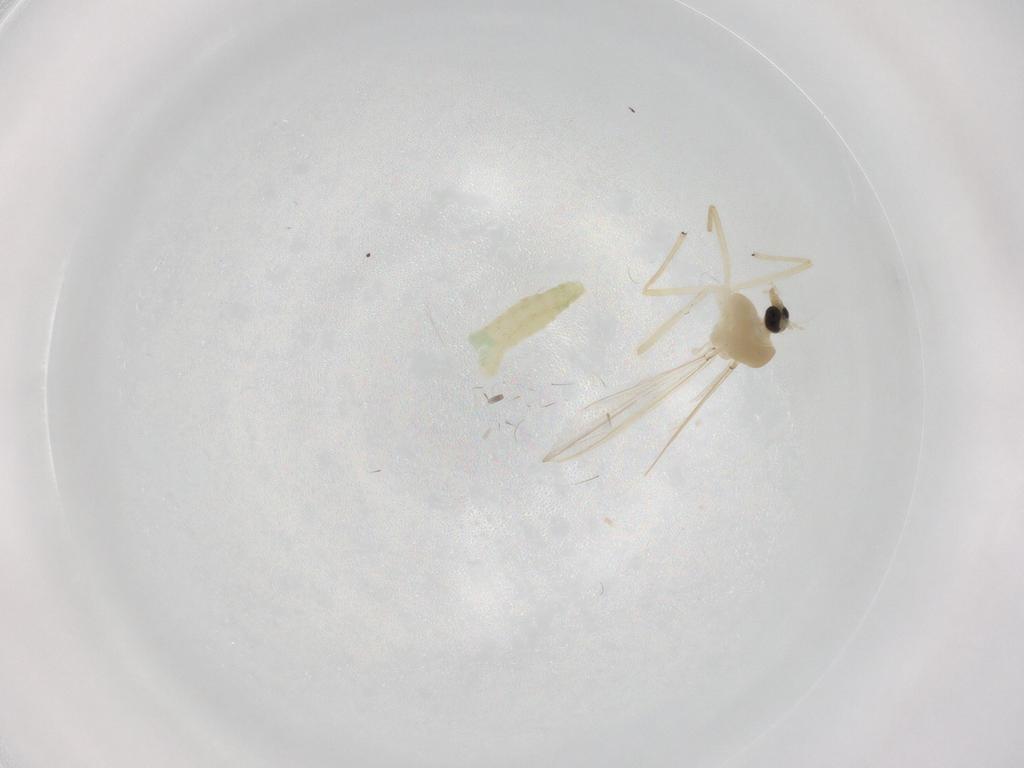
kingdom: Animalia
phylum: Arthropoda
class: Insecta
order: Diptera
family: Chironomidae
